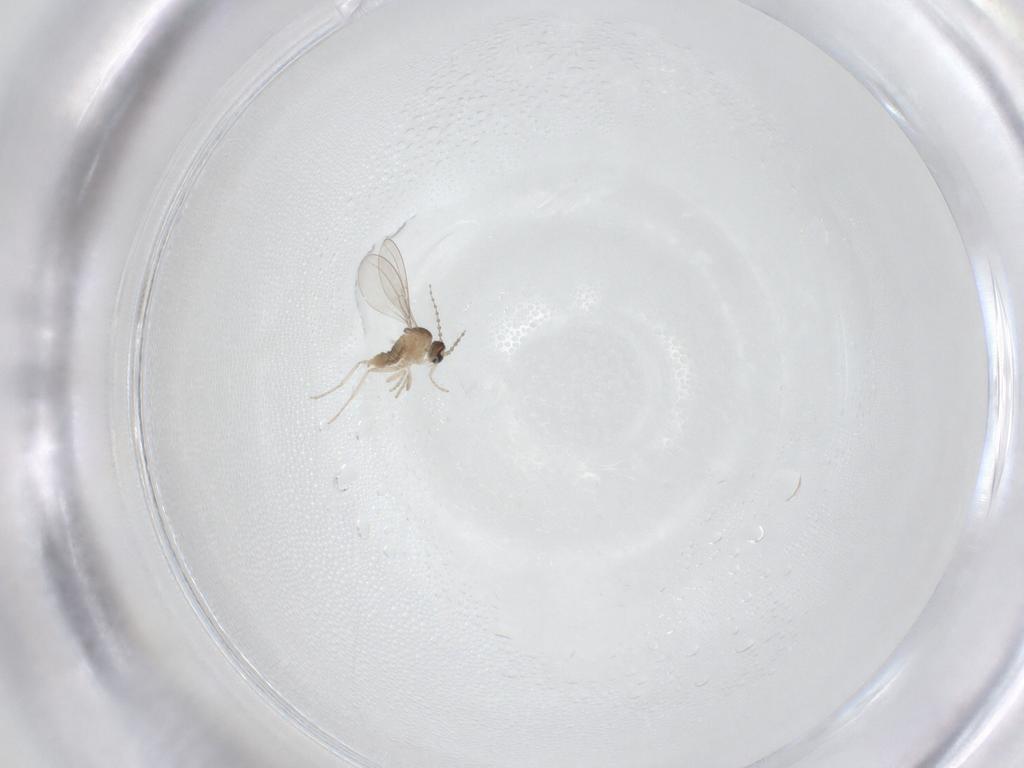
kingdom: Animalia
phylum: Arthropoda
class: Insecta
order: Diptera
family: Cecidomyiidae
